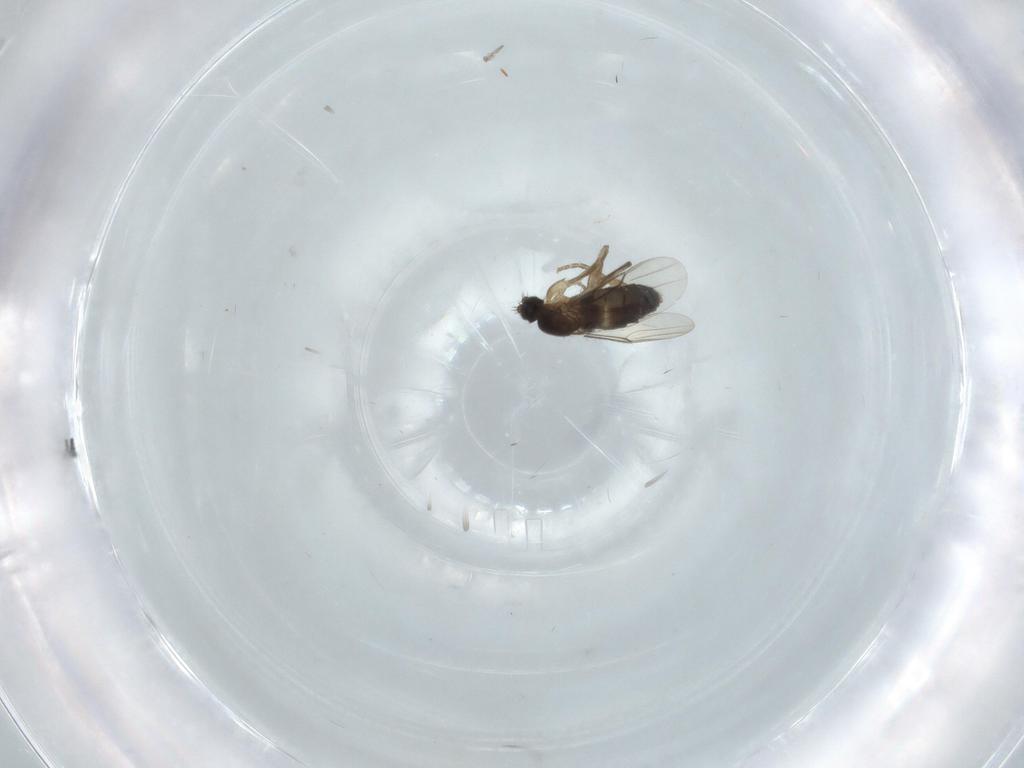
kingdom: Animalia
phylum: Arthropoda
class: Insecta
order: Diptera
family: Phoridae
